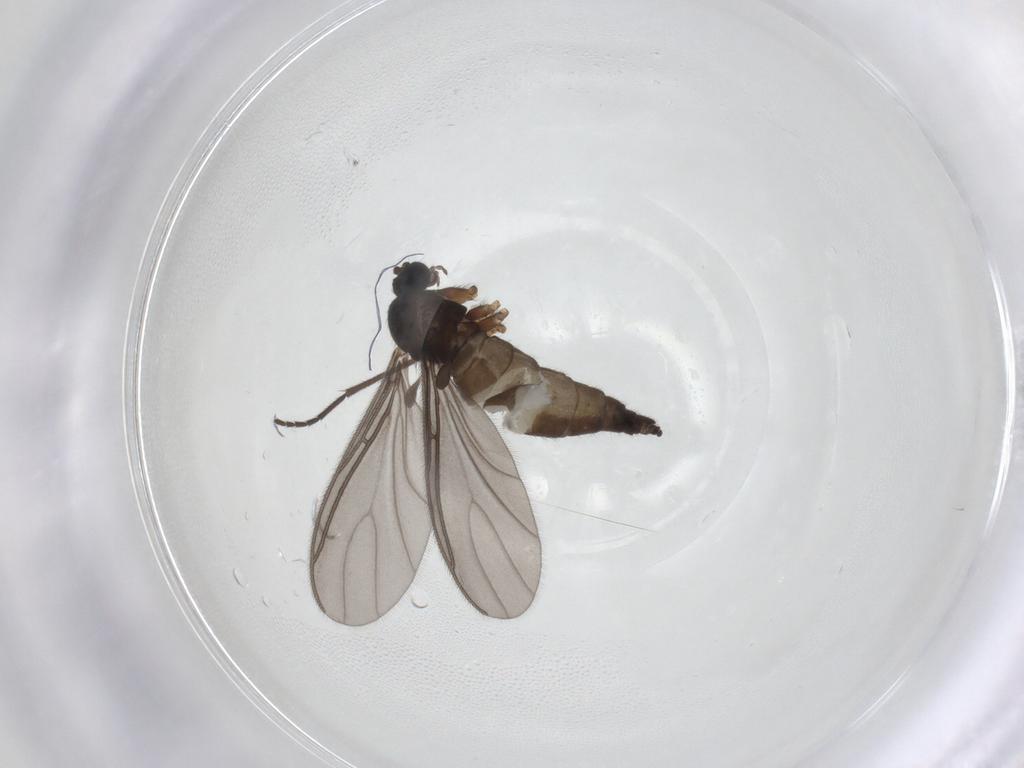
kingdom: Animalia
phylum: Arthropoda
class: Insecta
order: Diptera
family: Sciaridae
